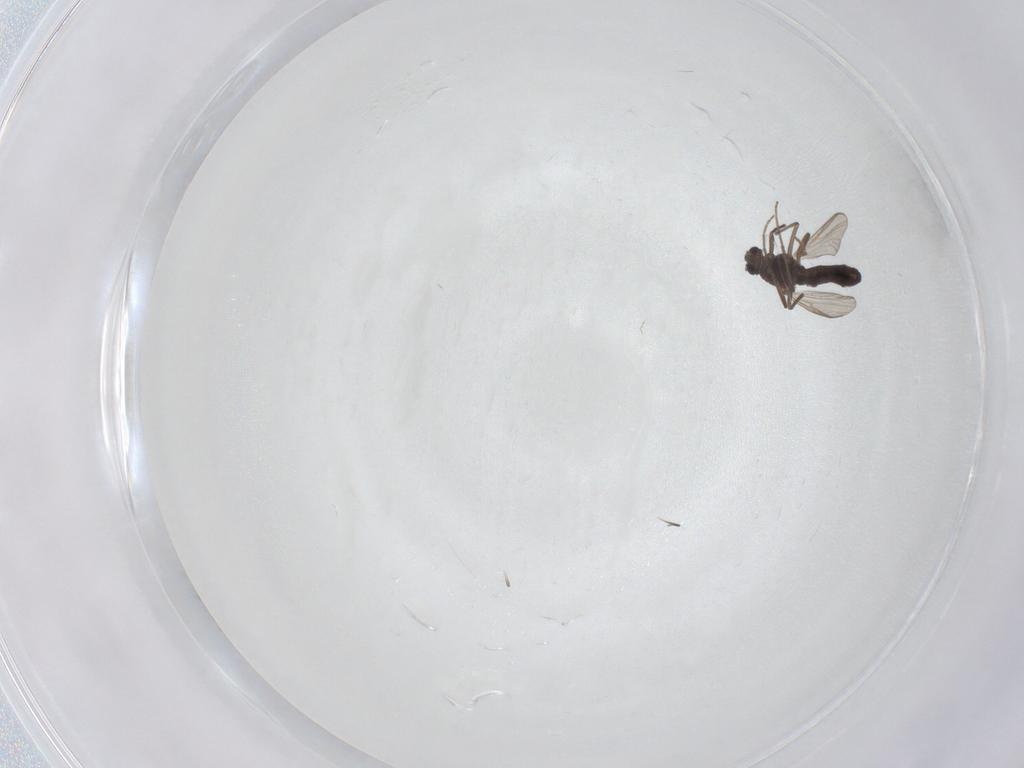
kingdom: Animalia
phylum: Arthropoda
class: Insecta
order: Diptera
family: Chironomidae
